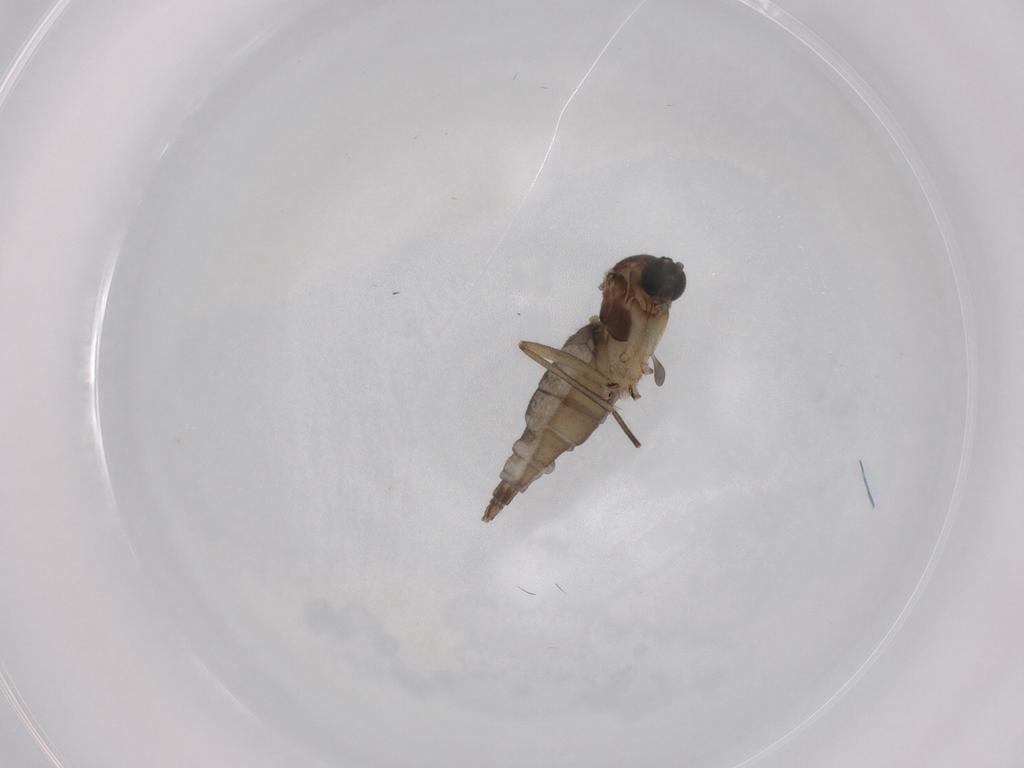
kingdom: Animalia
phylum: Arthropoda
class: Insecta
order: Diptera
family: Sciaridae
